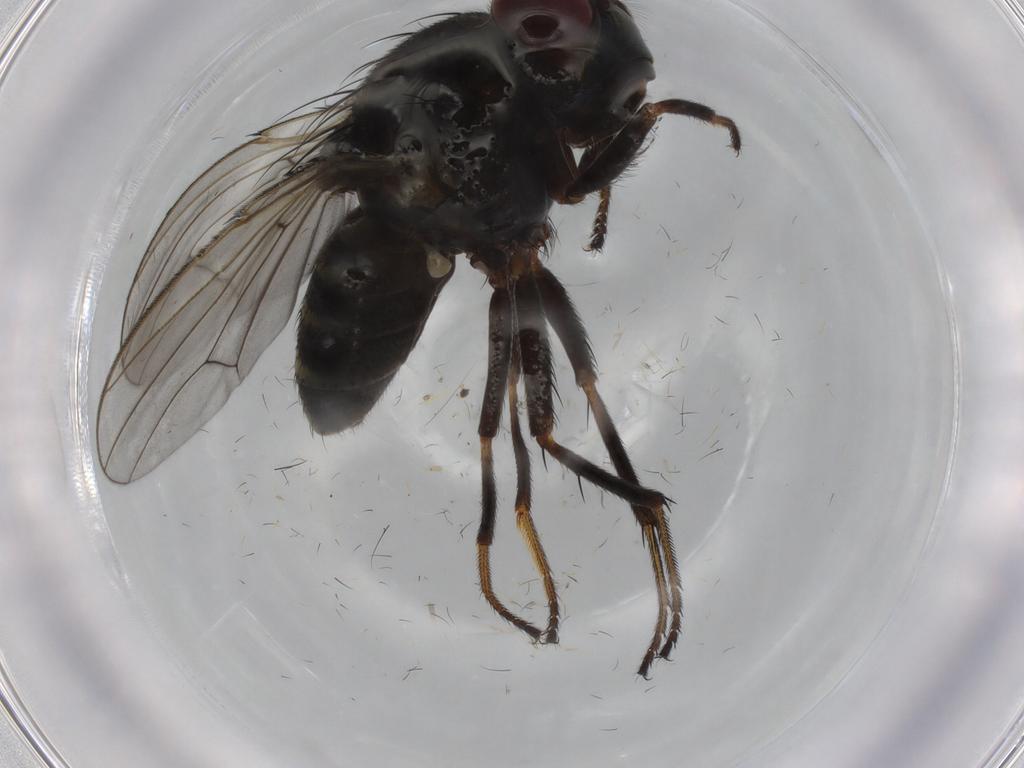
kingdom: Animalia
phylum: Arthropoda
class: Insecta
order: Diptera
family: Ephydridae
